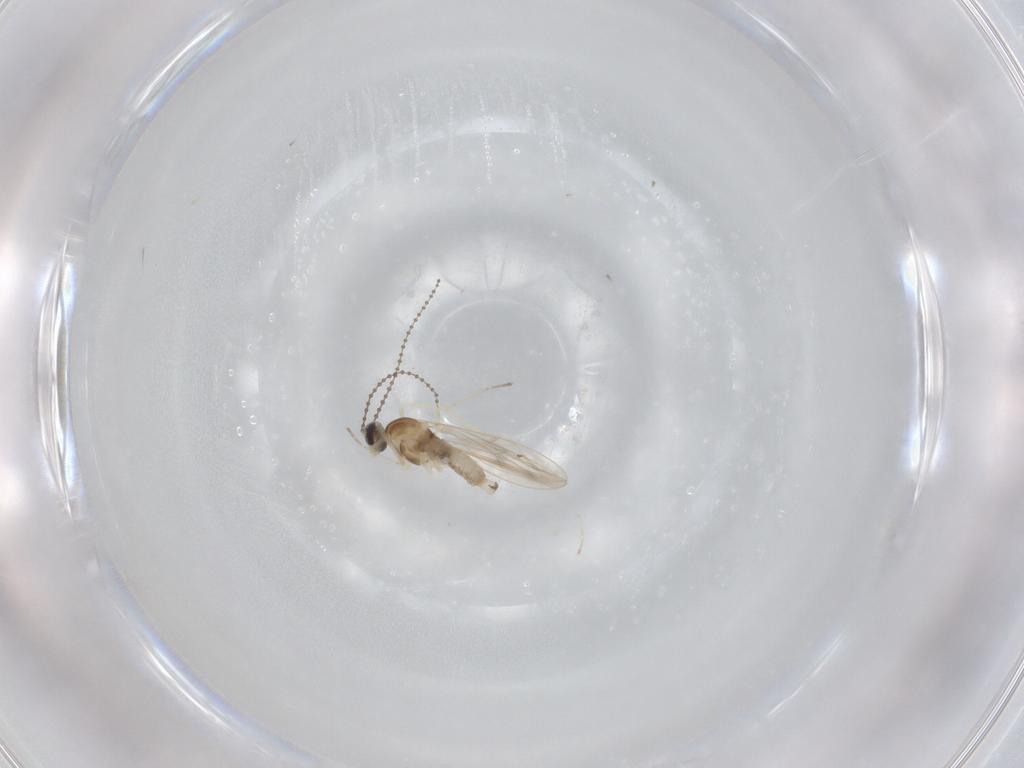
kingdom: Animalia
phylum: Arthropoda
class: Insecta
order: Diptera
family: Cecidomyiidae
